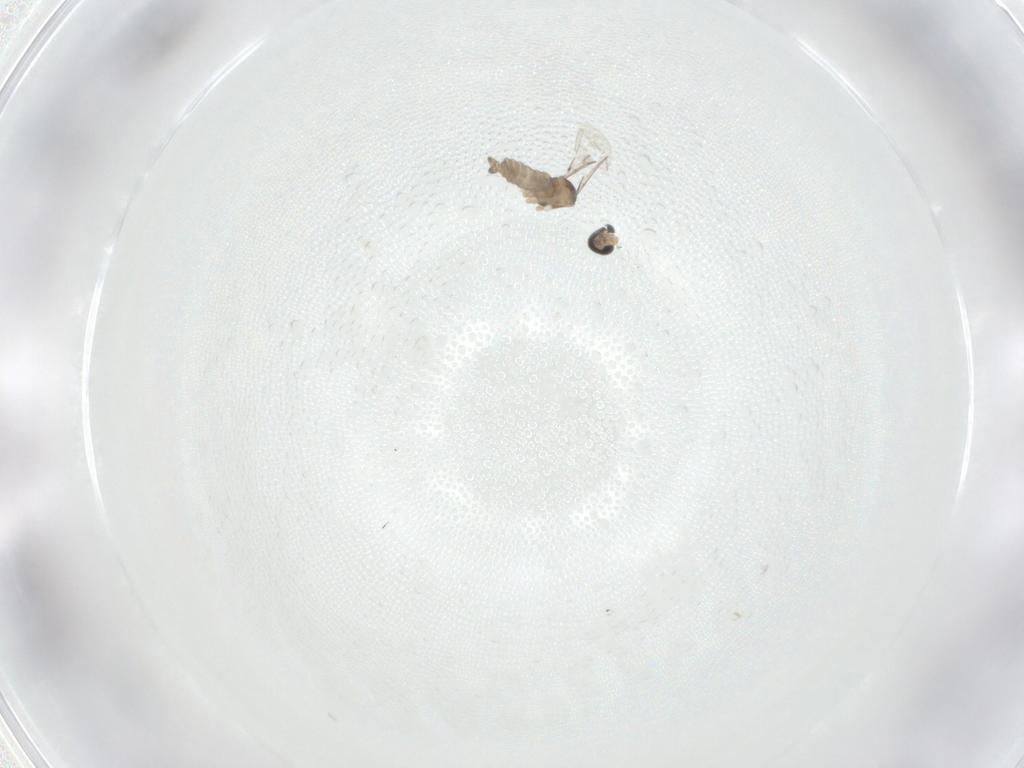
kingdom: Animalia
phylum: Arthropoda
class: Insecta
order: Diptera
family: Cecidomyiidae
